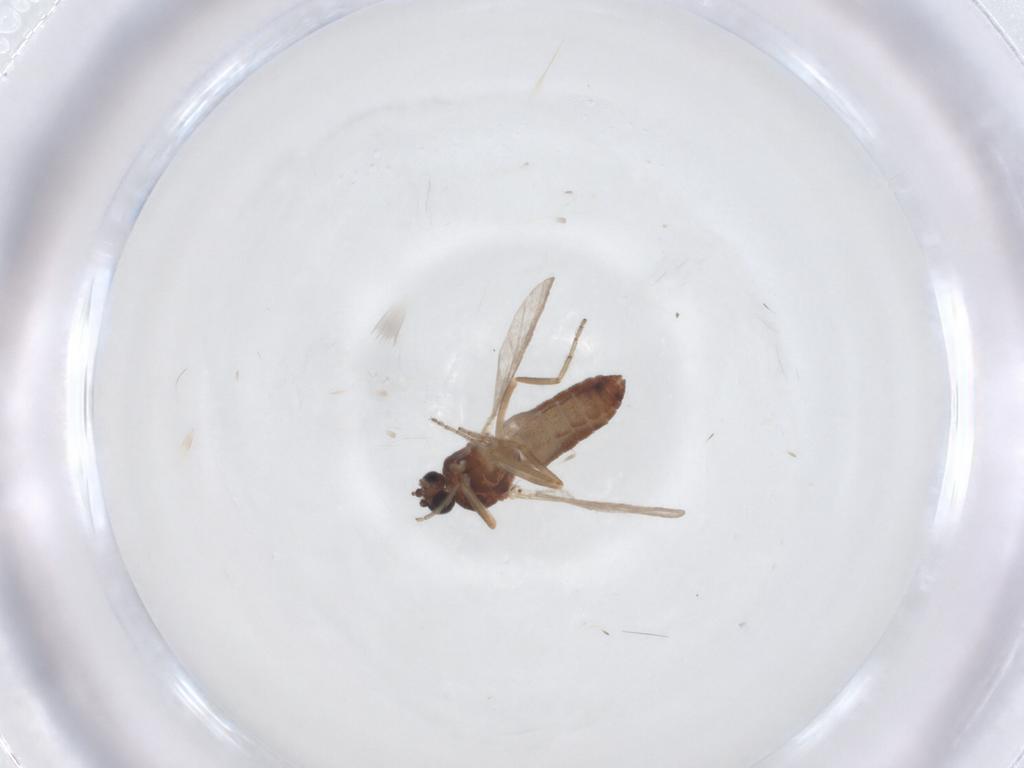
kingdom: Animalia
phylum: Arthropoda
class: Insecta
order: Diptera
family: Ceratopogonidae
